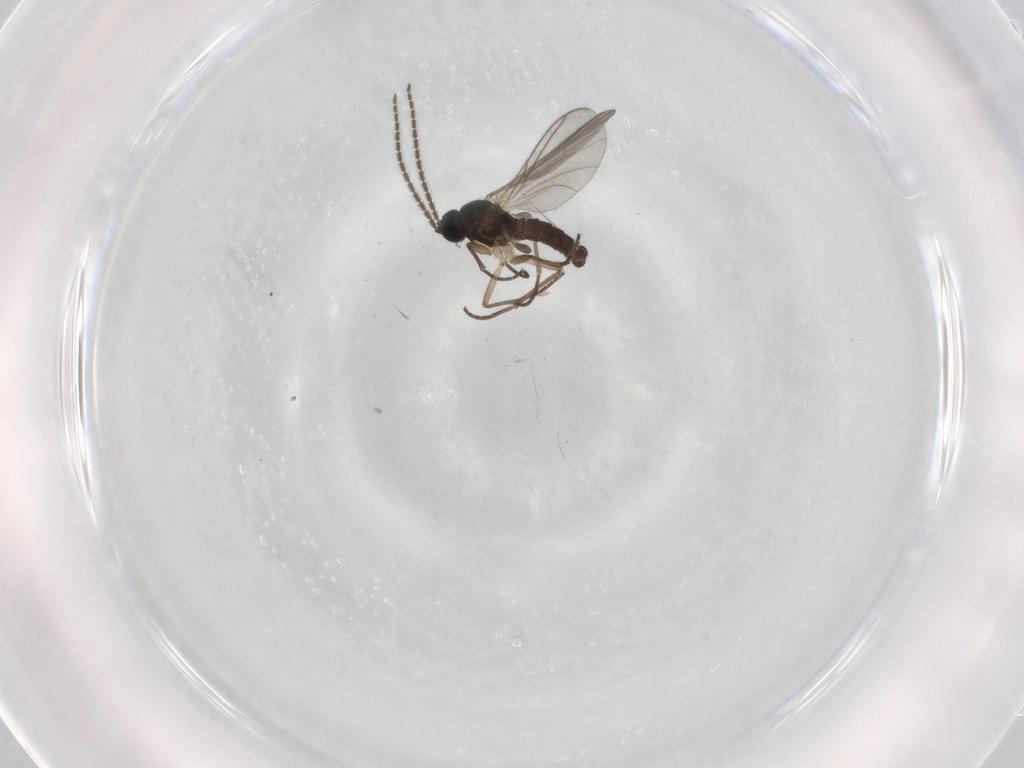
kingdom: Animalia
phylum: Arthropoda
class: Insecta
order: Diptera
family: Sciaridae
